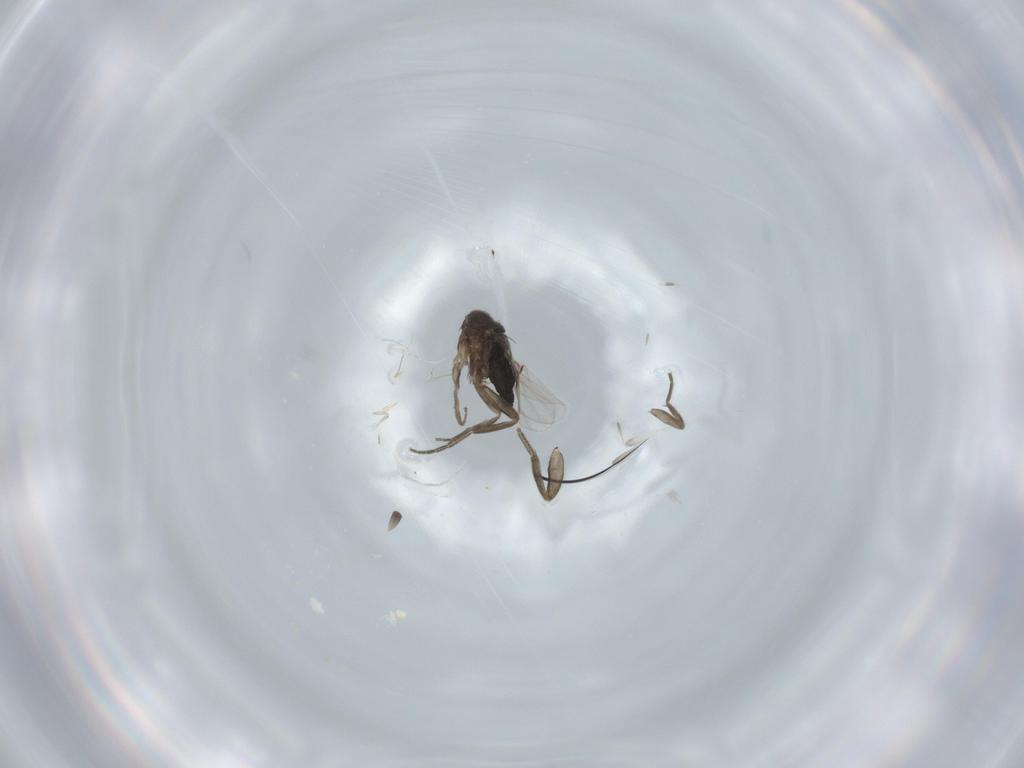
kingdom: Animalia
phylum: Arthropoda
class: Insecta
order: Diptera
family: Phoridae
